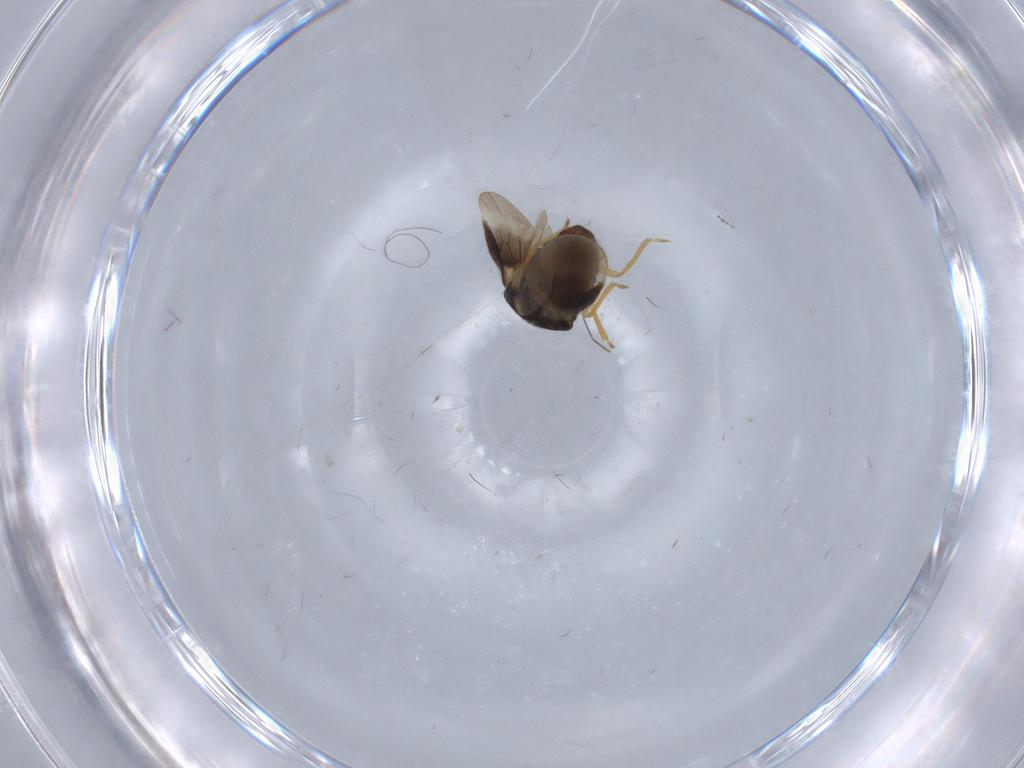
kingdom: Animalia
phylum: Arthropoda
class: Insecta
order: Hemiptera
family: Schizopteridae
